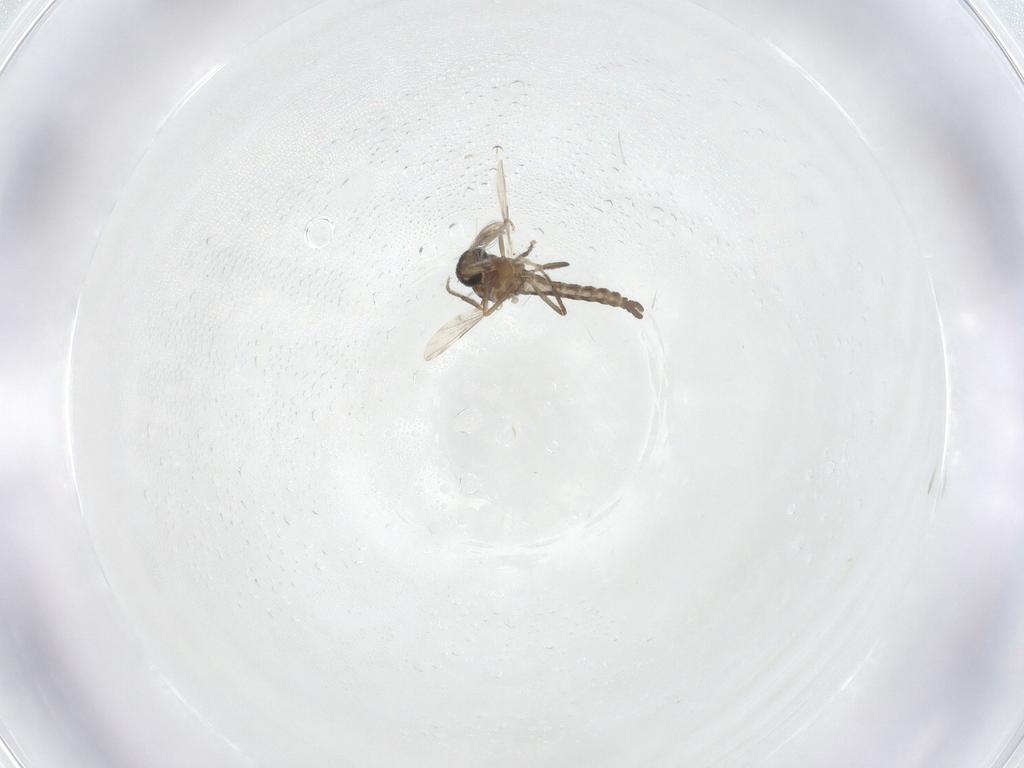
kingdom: Animalia
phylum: Arthropoda
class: Insecta
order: Diptera
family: Ceratopogonidae
